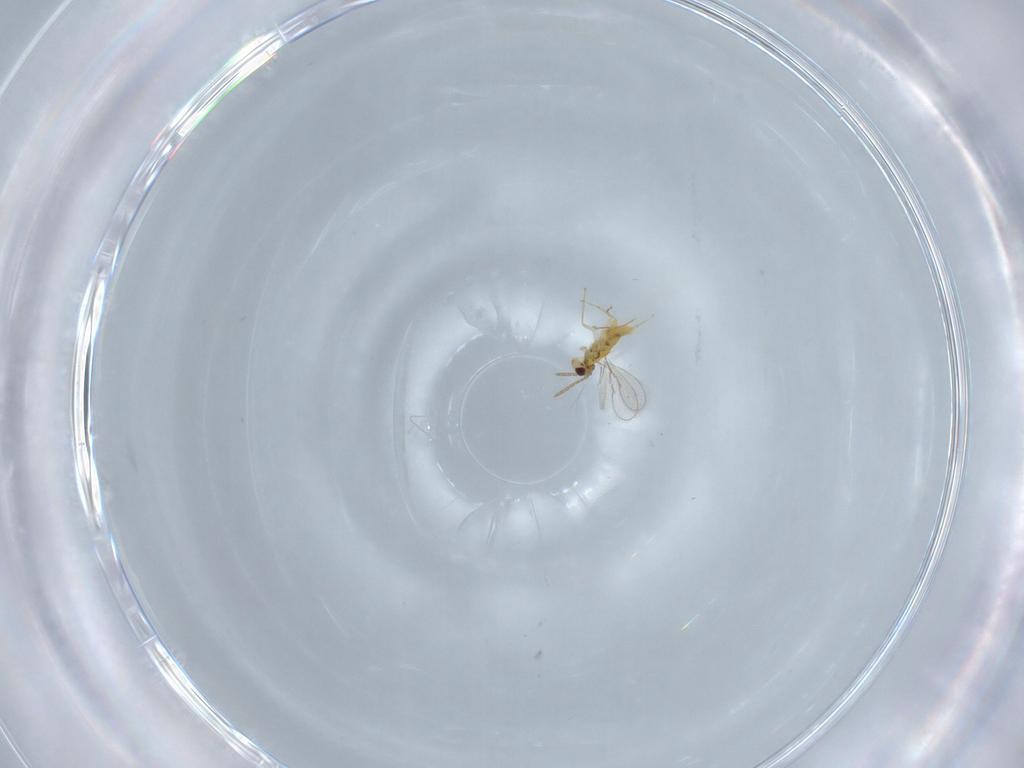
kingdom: Animalia
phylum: Arthropoda
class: Insecta
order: Hymenoptera
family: Aphelinidae
